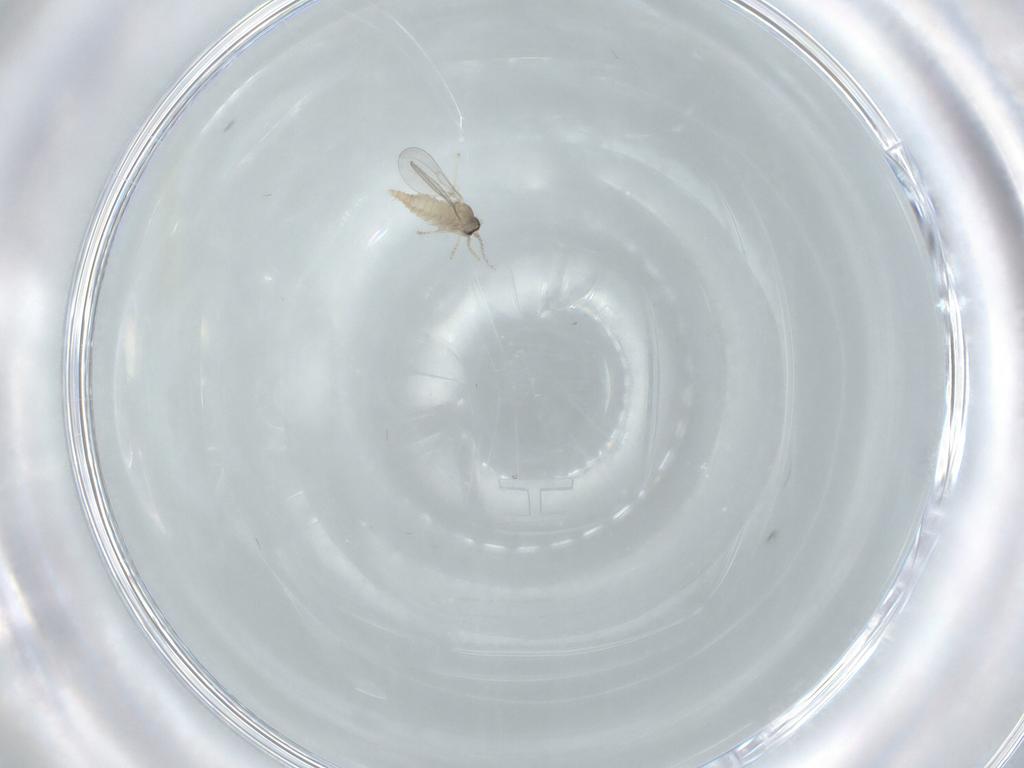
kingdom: Animalia
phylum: Arthropoda
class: Insecta
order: Diptera
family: Cecidomyiidae
